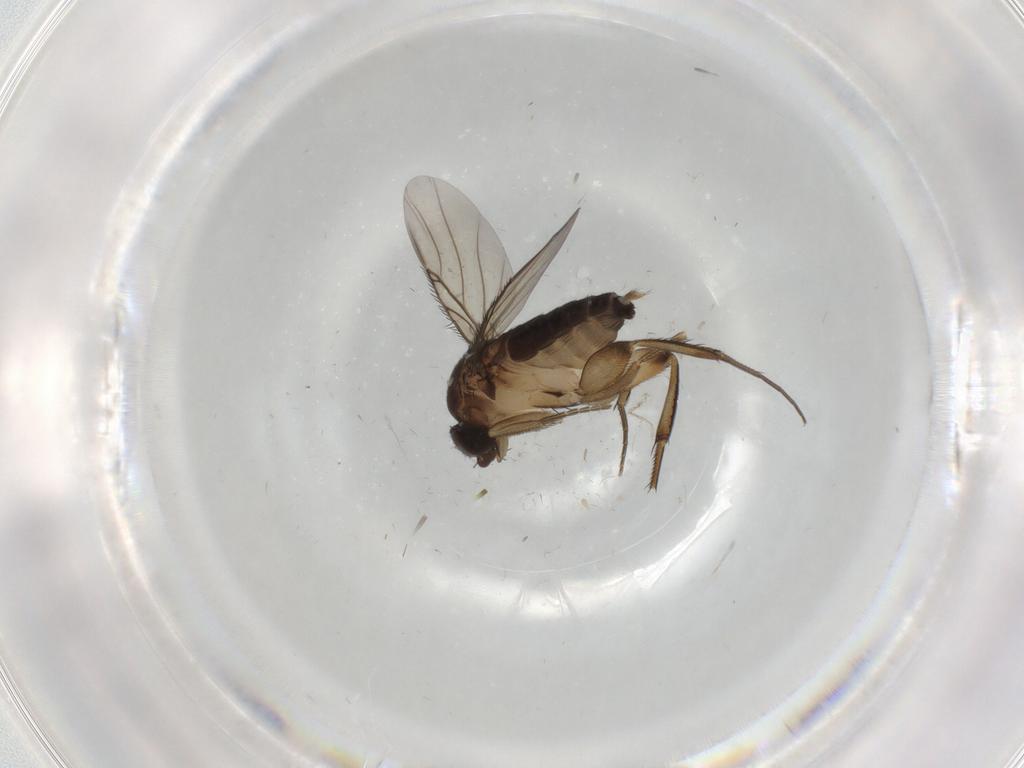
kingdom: Animalia
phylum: Arthropoda
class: Insecta
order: Diptera
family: Phoridae
